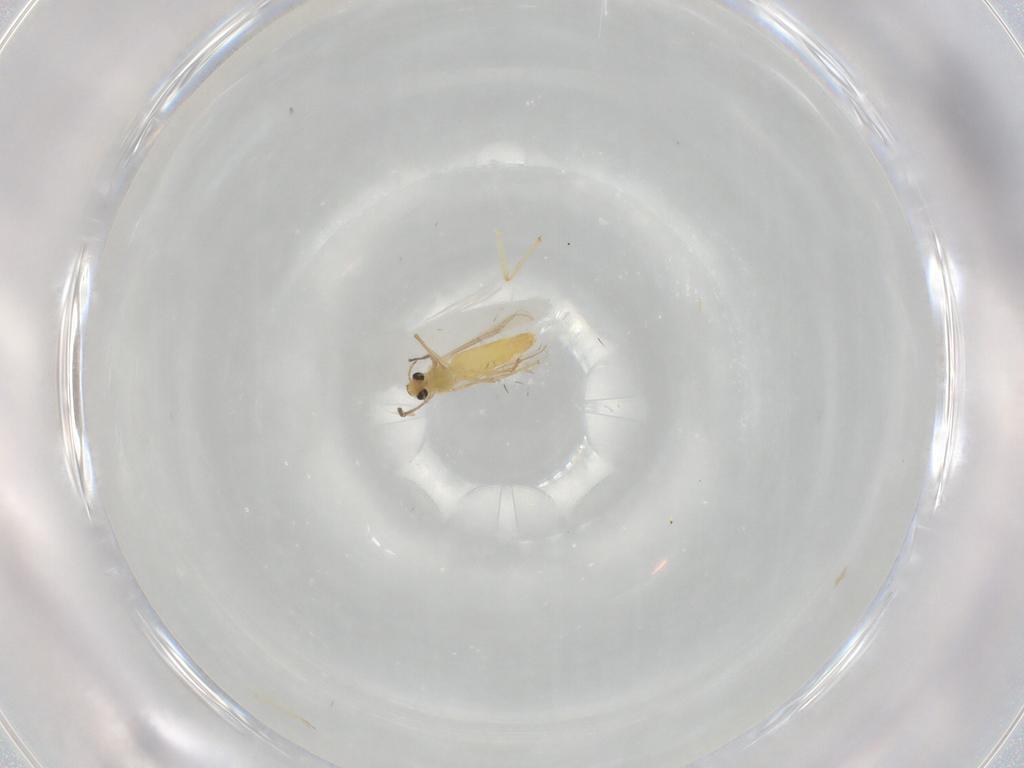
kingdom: Animalia
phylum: Arthropoda
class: Insecta
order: Diptera
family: Chironomidae
